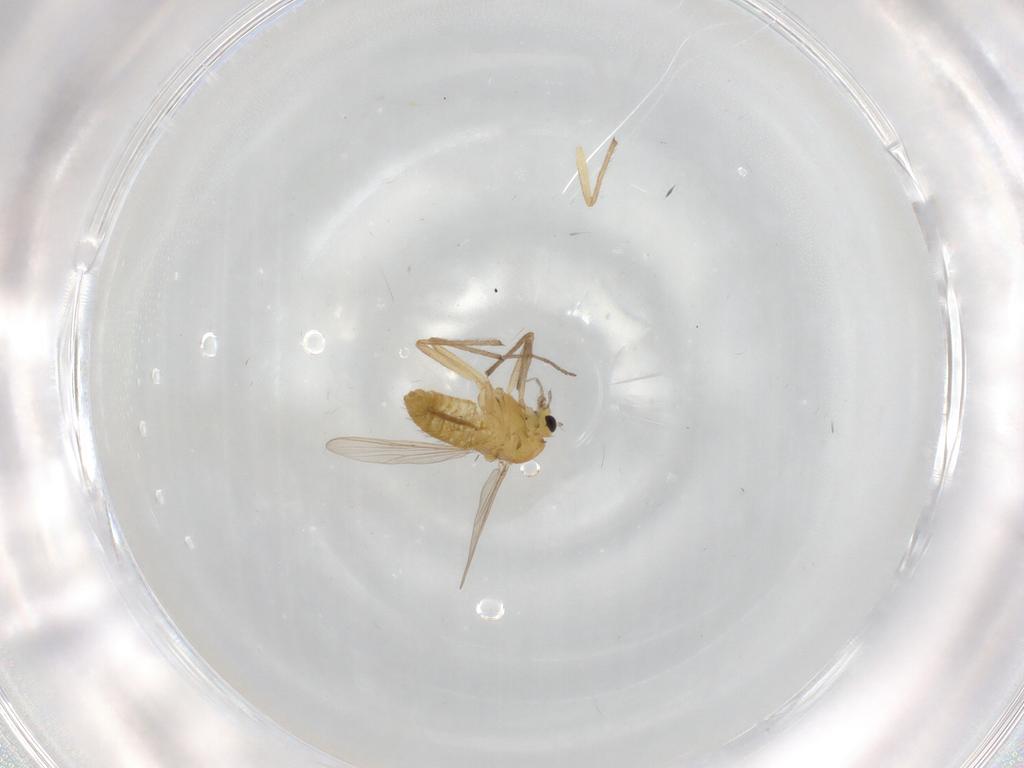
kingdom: Animalia
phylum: Arthropoda
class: Insecta
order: Diptera
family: Chironomidae
